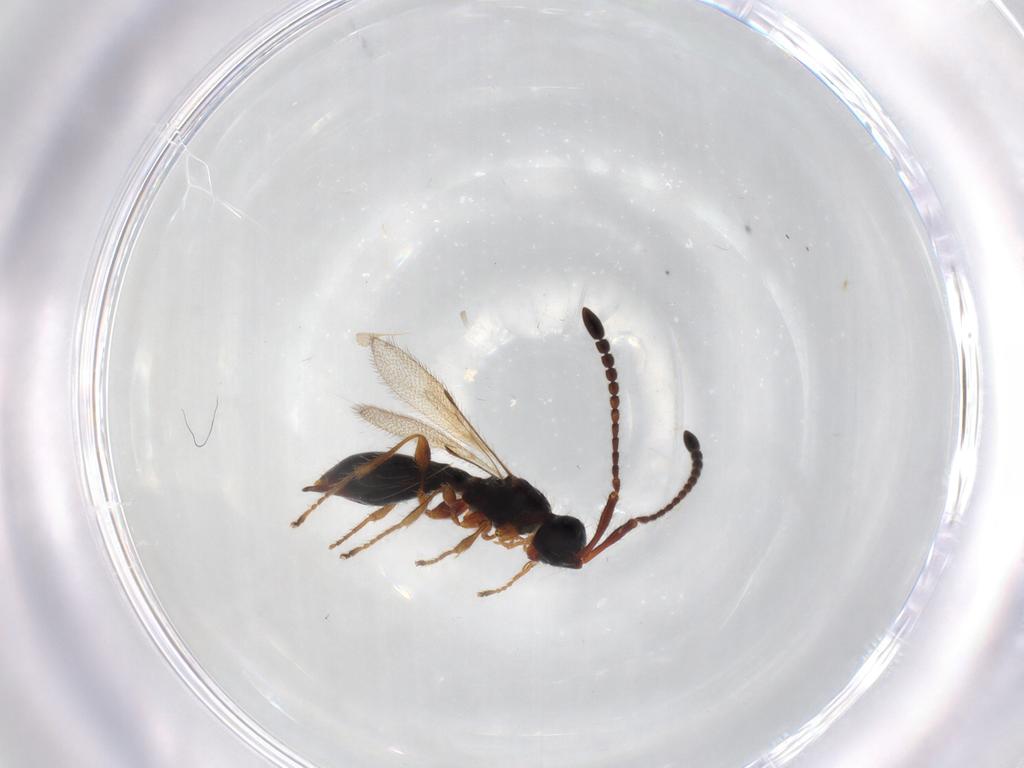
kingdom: Animalia
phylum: Arthropoda
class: Insecta
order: Hymenoptera
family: Diapriidae
